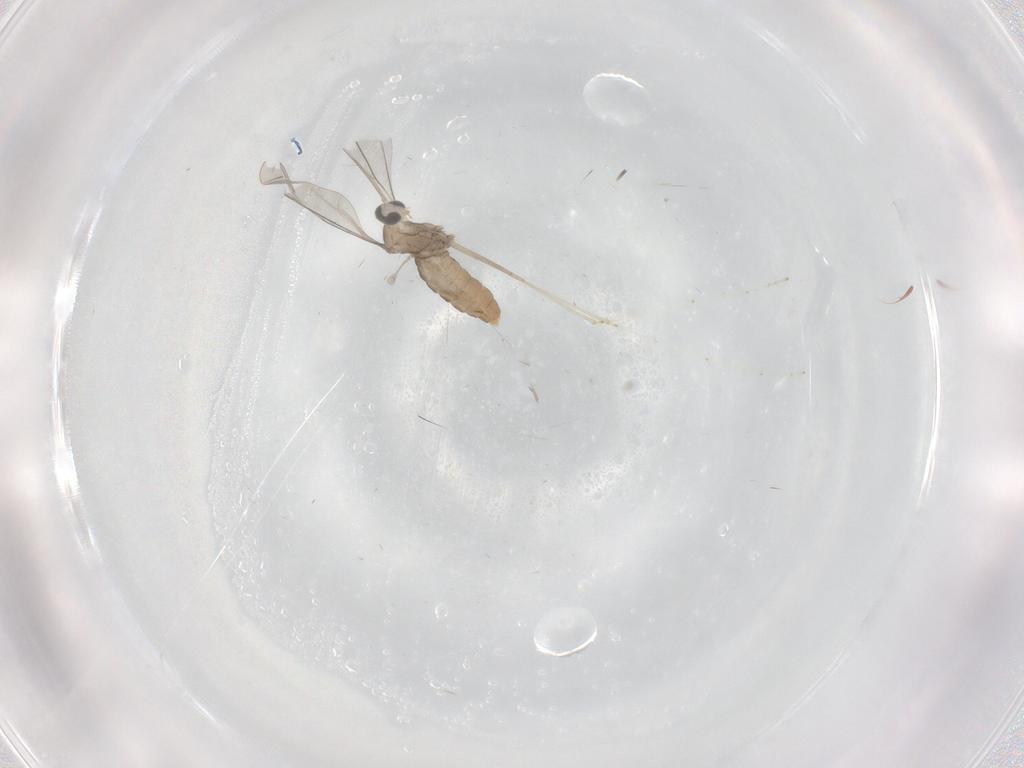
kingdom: Animalia
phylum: Arthropoda
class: Insecta
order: Diptera
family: Cecidomyiidae
